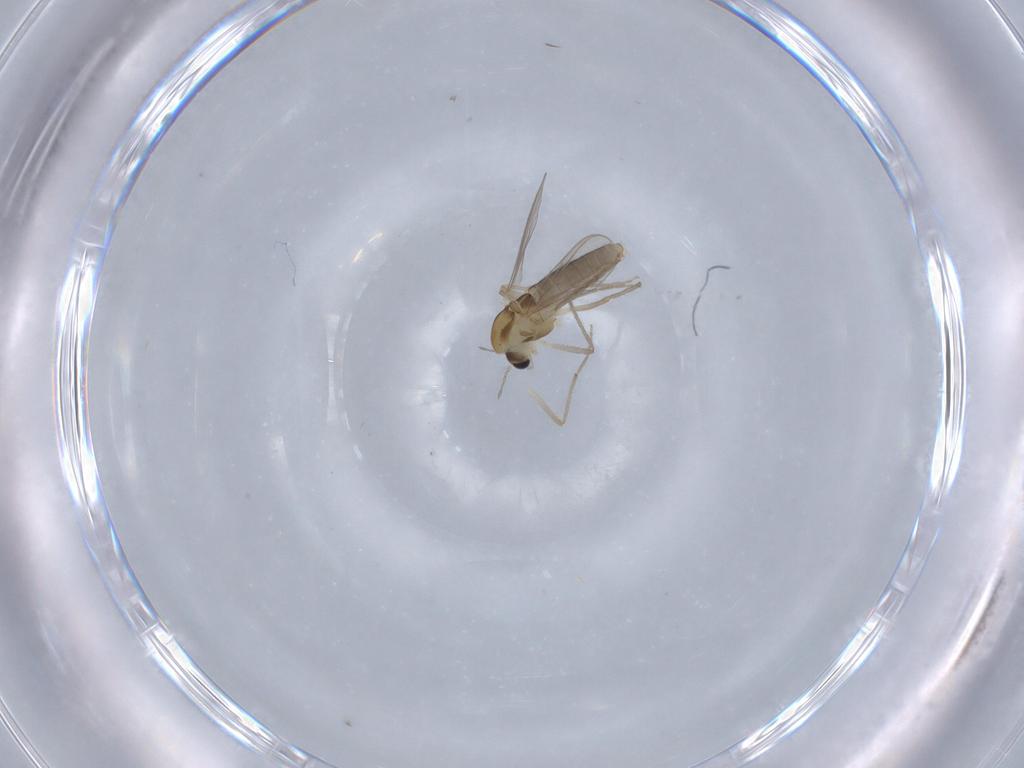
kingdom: Animalia
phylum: Arthropoda
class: Insecta
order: Diptera
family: Chironomidae
